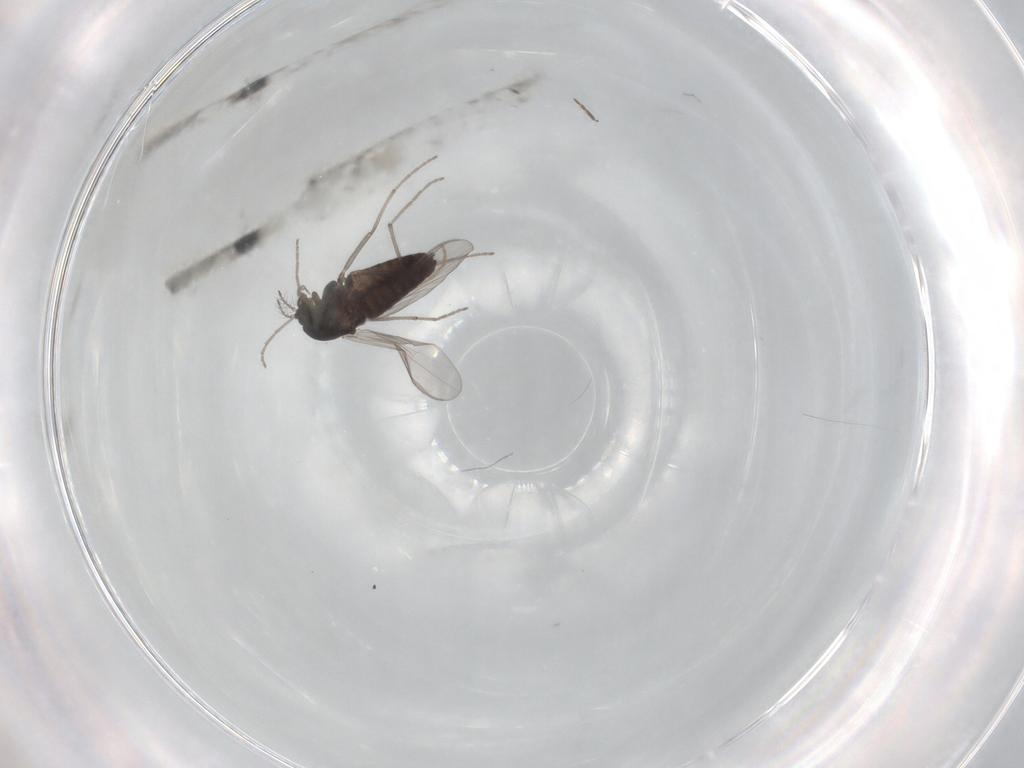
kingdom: Animalia
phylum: Arthropoda
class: Insecta
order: Diptera
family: Chironomidae
